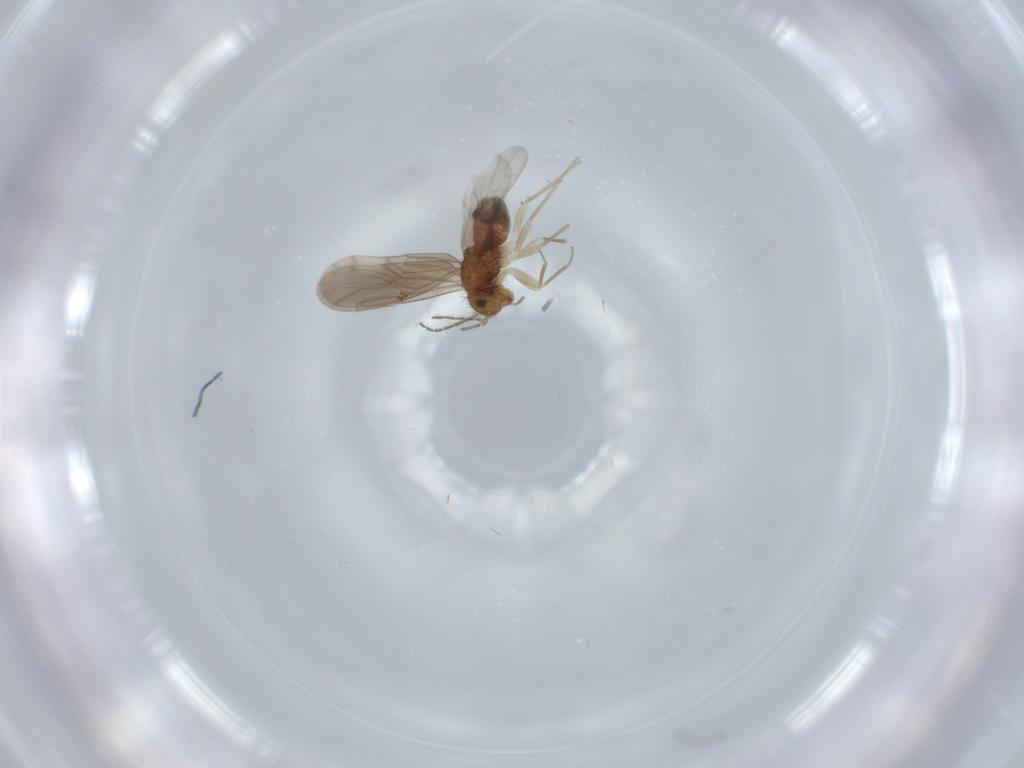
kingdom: Animalia
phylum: Arthropoda
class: Insecta
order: Psocodea
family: Ectopsocidae
